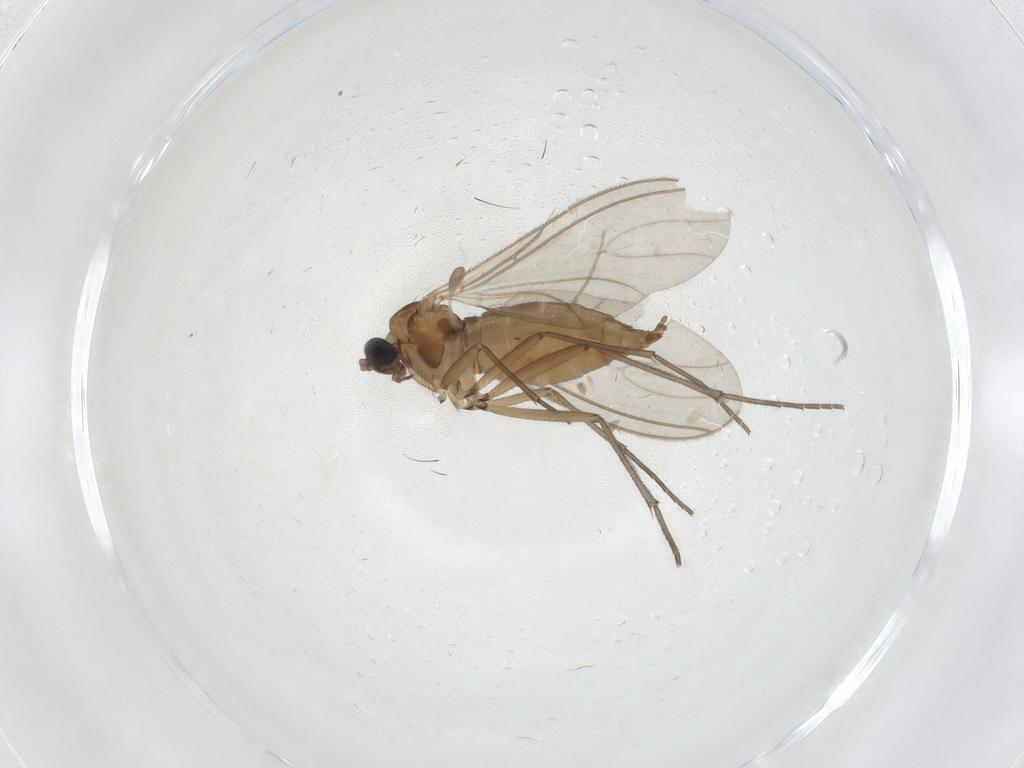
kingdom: Animalia
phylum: Arthropoda
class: Insecta
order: Diptera
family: Sciaridae
